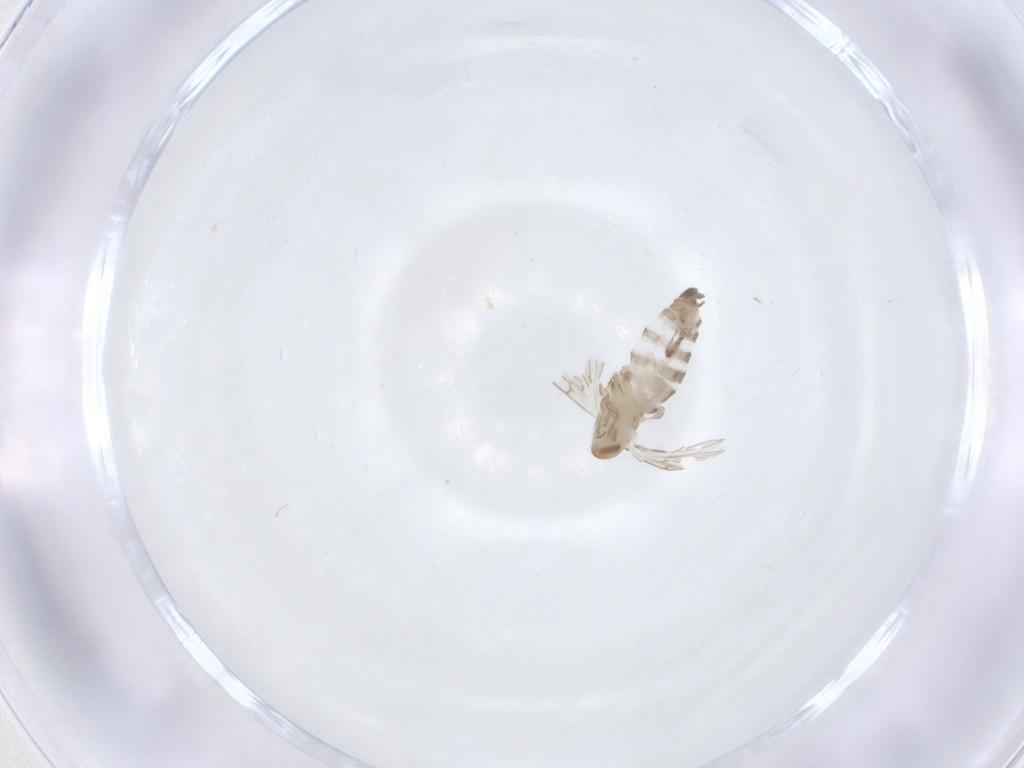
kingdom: Animalia
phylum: Arthropoda
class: Insecta
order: Diptera
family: Psychodidae
